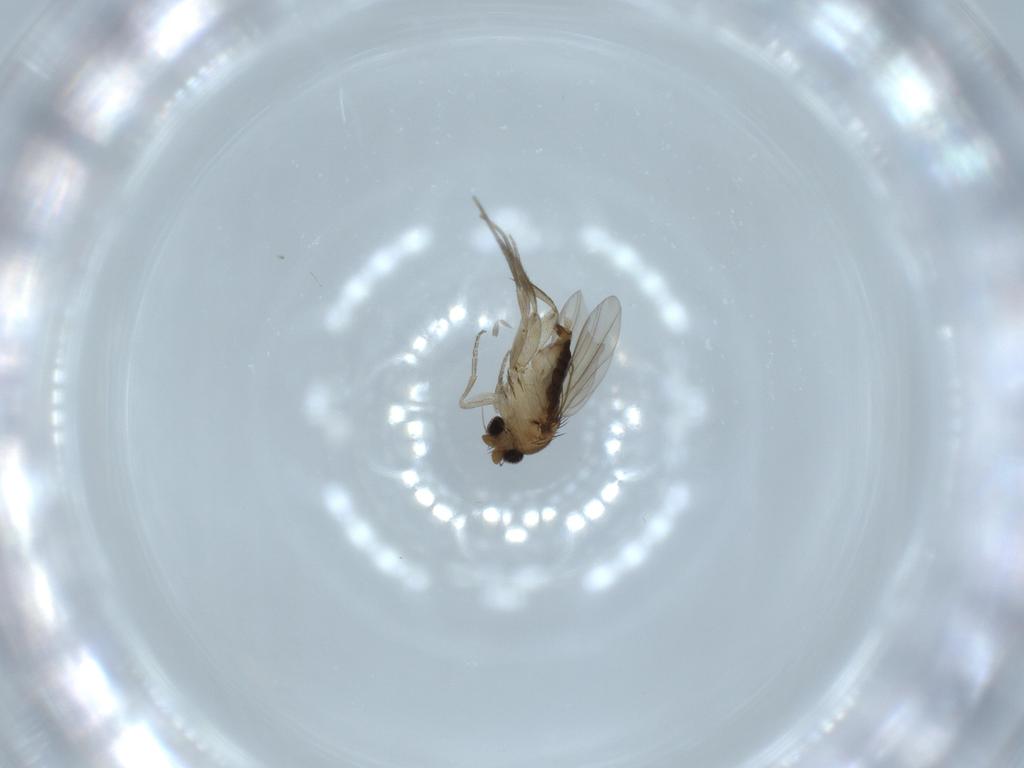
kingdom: Animalia
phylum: Arthropoda
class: Insecta
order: Diptera
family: Phoridae
